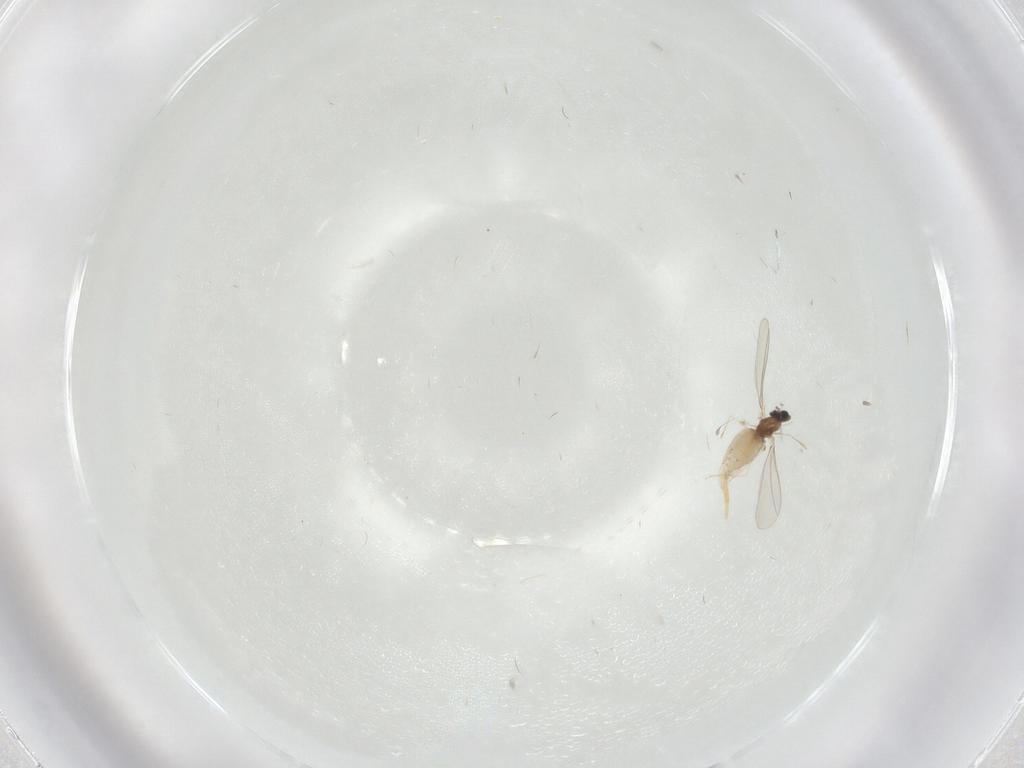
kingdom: Animalia
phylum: Arthropoda
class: Insecta
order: Diptera
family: Cecidomyiidae
